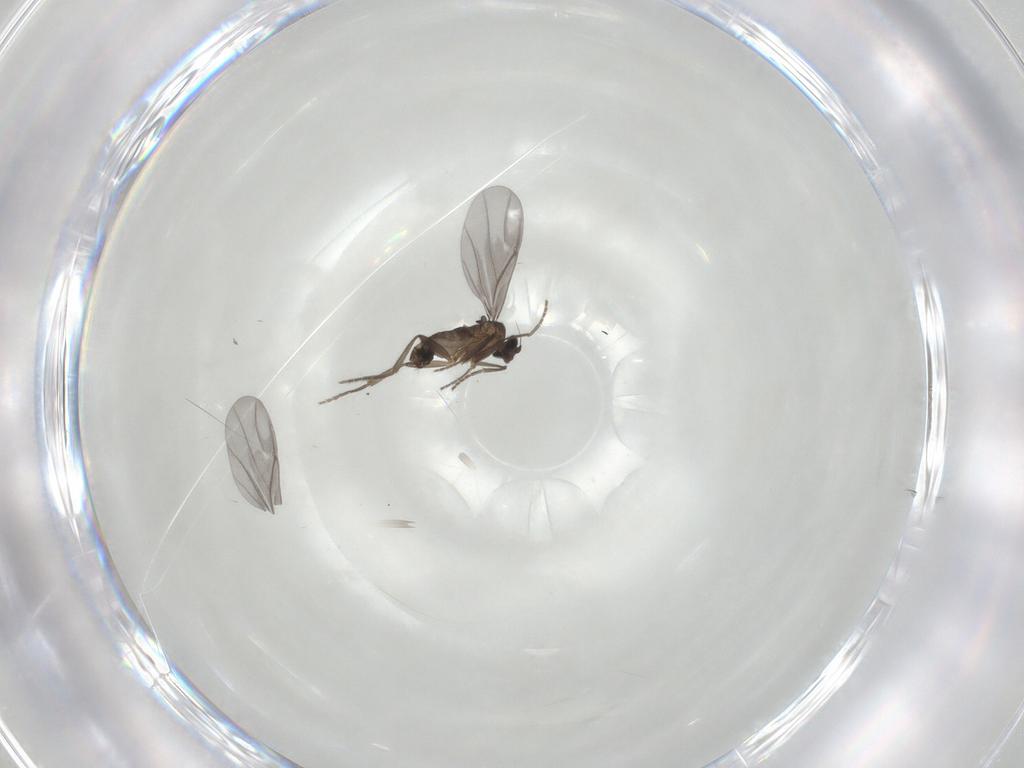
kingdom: Animalia
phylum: Arthropoda
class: Insecta
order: Diptera
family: Phoridae
